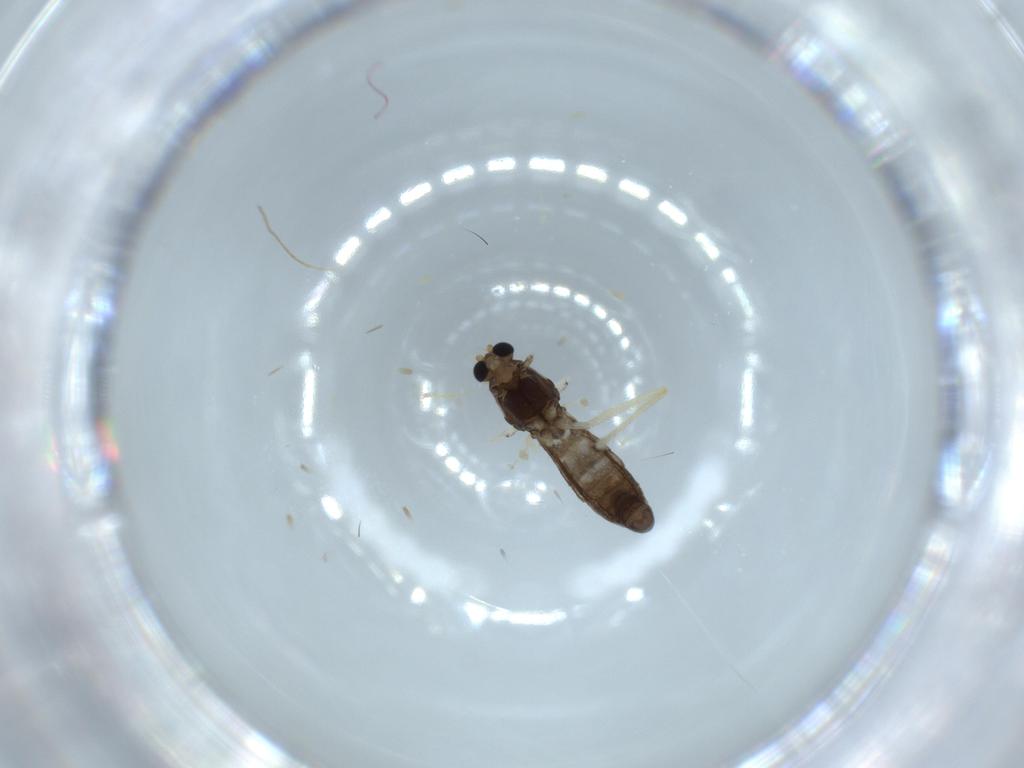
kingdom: Animalia
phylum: Arthropoda
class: Insecta
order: Diptera
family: Chironomidae
